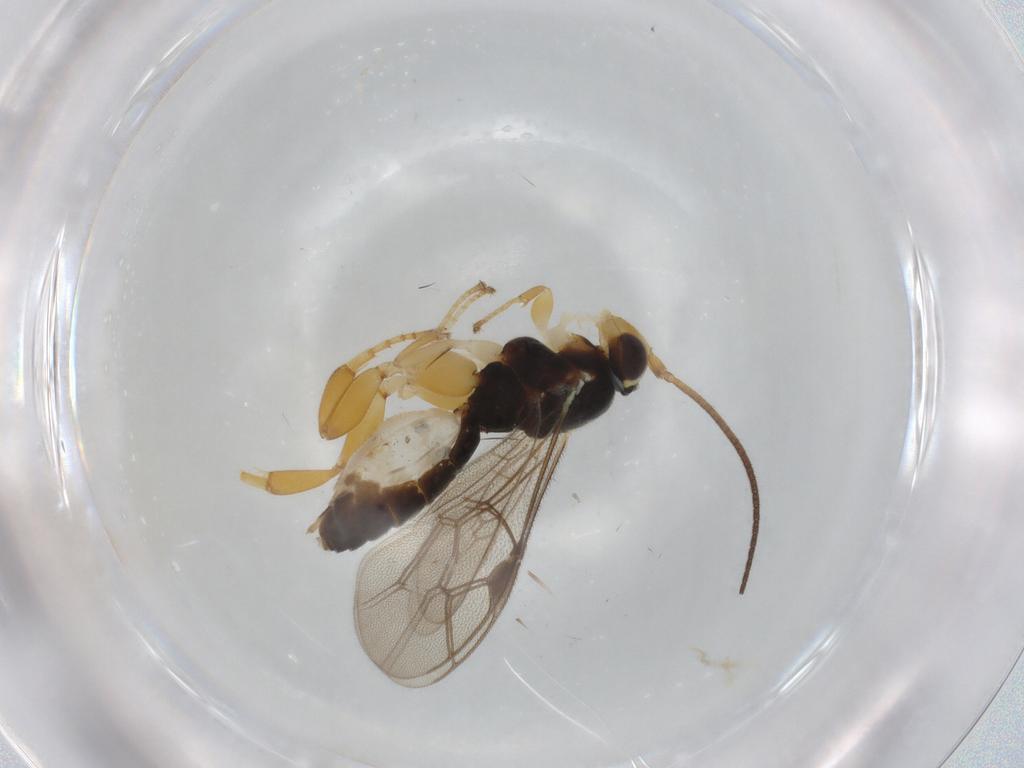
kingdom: Animalia
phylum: Arthropoda
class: Insecta
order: Hymenoptera
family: Ichneumonidae
